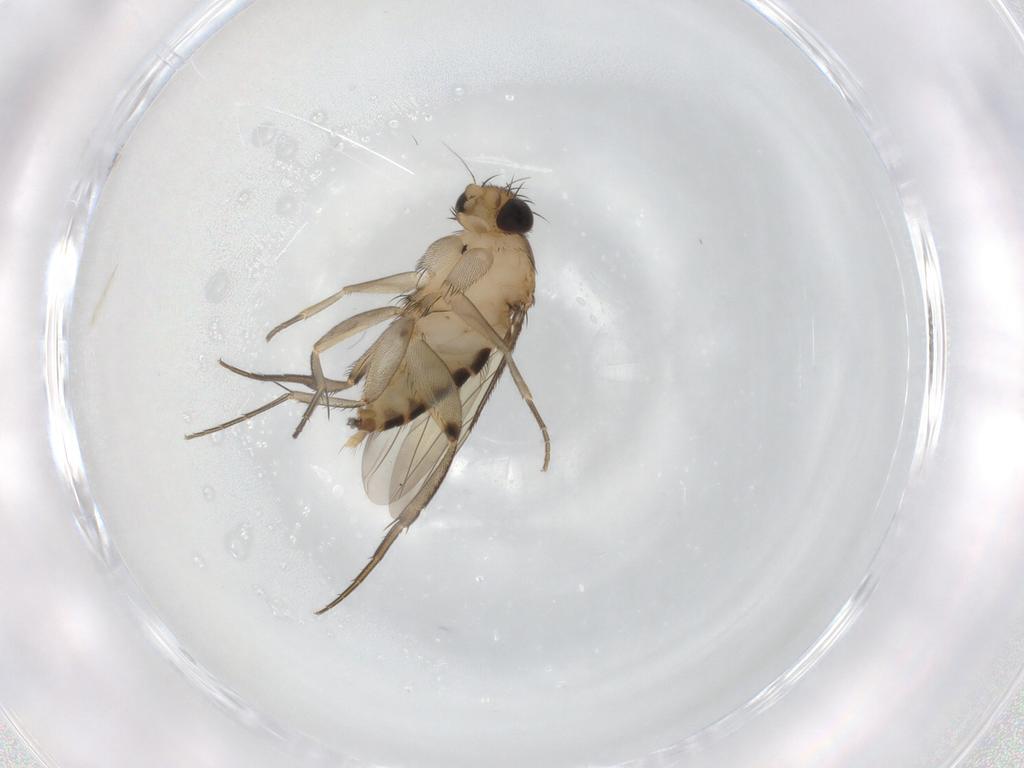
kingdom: Animalia
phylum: Arthropoda
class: Insecta
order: Diptera
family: Phoridae
